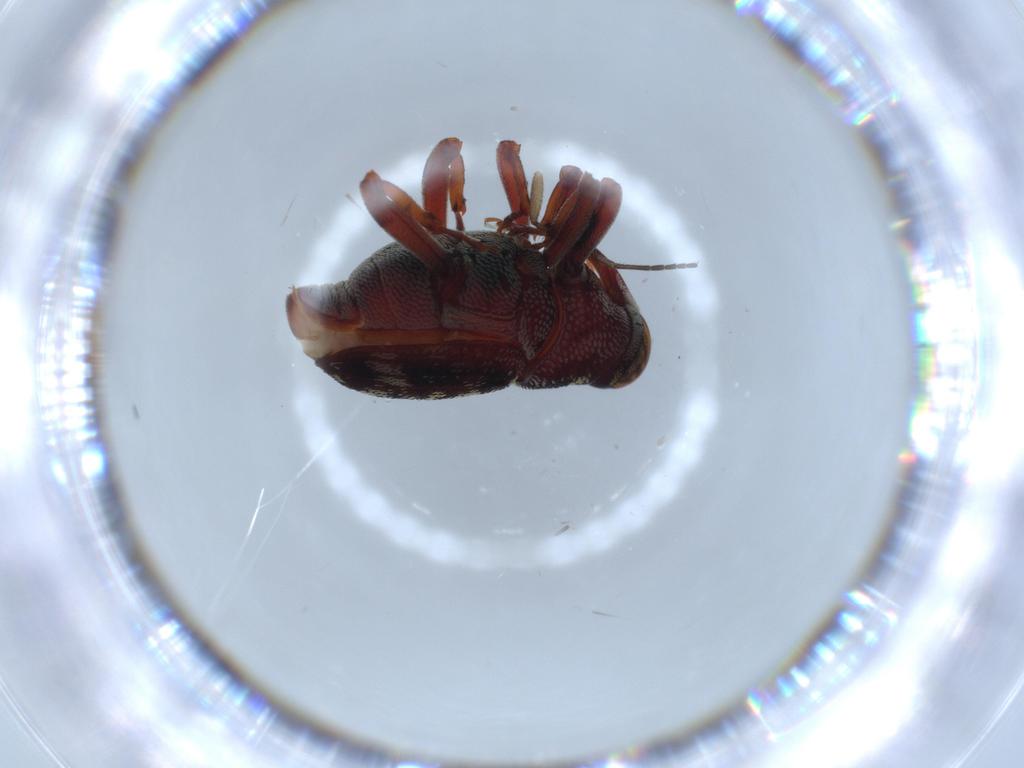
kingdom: Animalia
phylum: Arthropoda
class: Insecta
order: Coleoptera
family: Curculionidae
